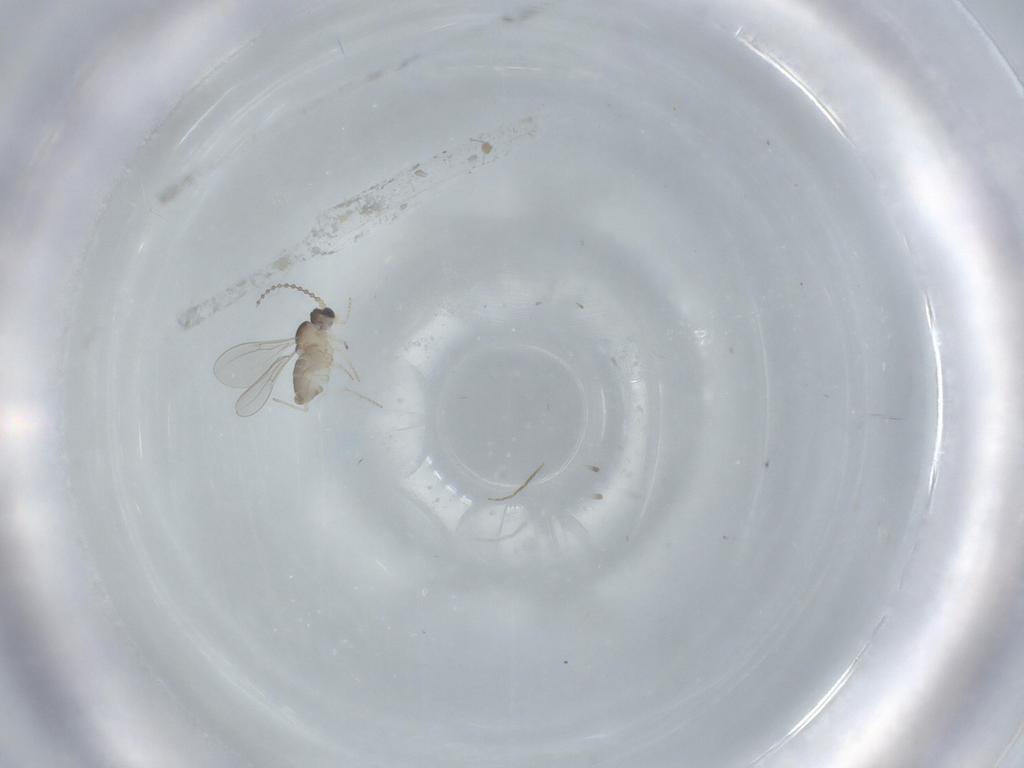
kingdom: Animalia
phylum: Arthropoda
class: Insecta
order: Diptera
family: Cecidomyiidae
